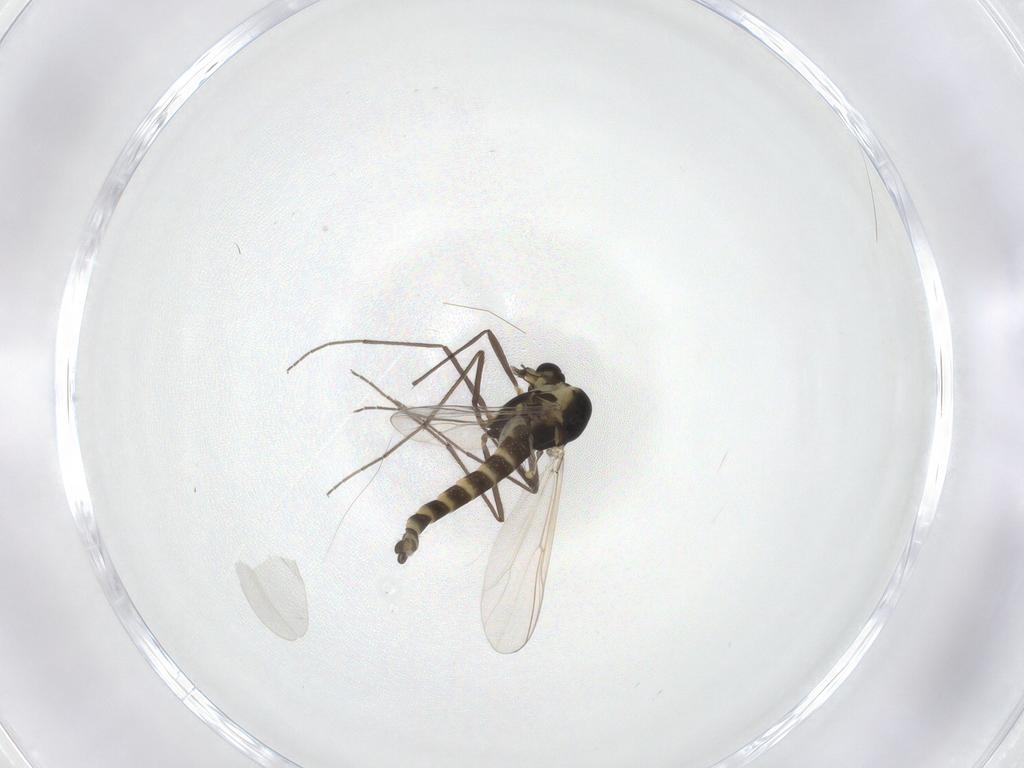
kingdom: Animalia
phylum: Arthropoda
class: Insecta
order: Diptera
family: Chironomidae
